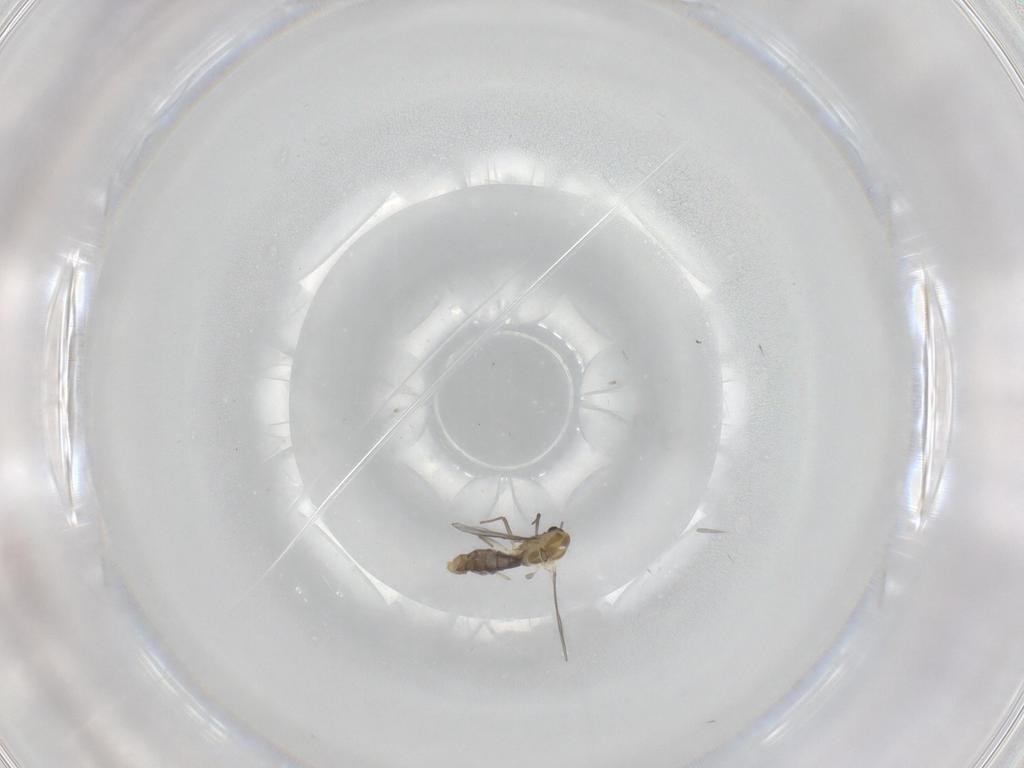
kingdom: Animalia
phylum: Arthropoda
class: Insecta
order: Diptera
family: Chironomidae
